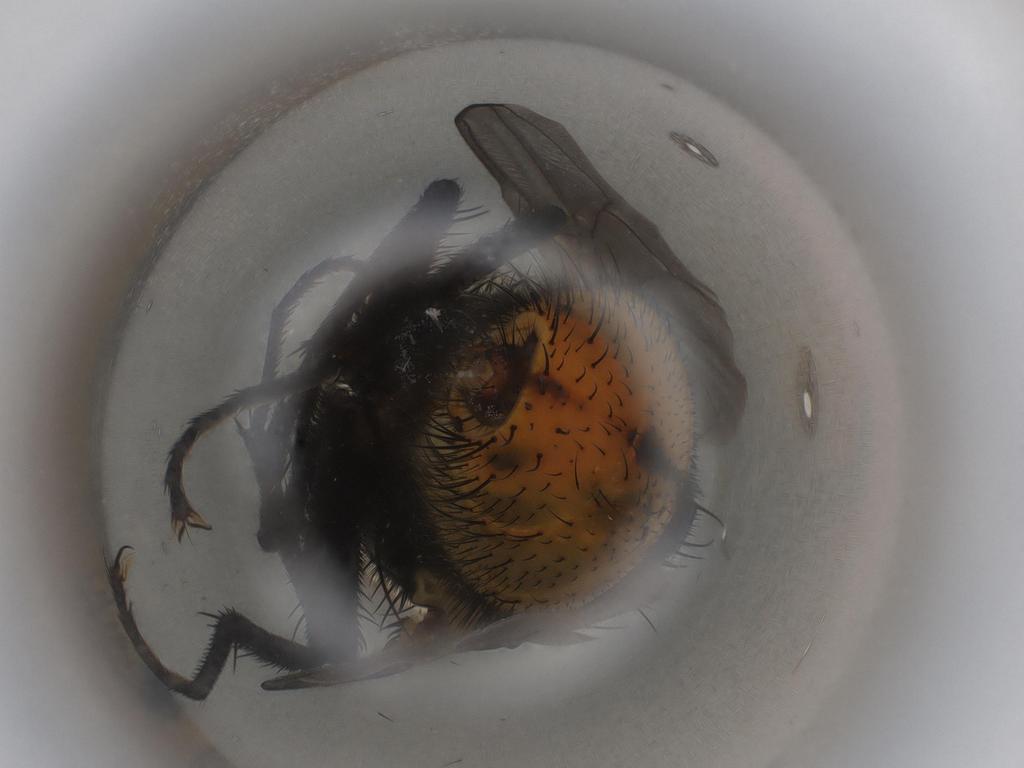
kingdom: Animalia
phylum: Arthropoda
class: Insecta
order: Diptera
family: Muscidae
